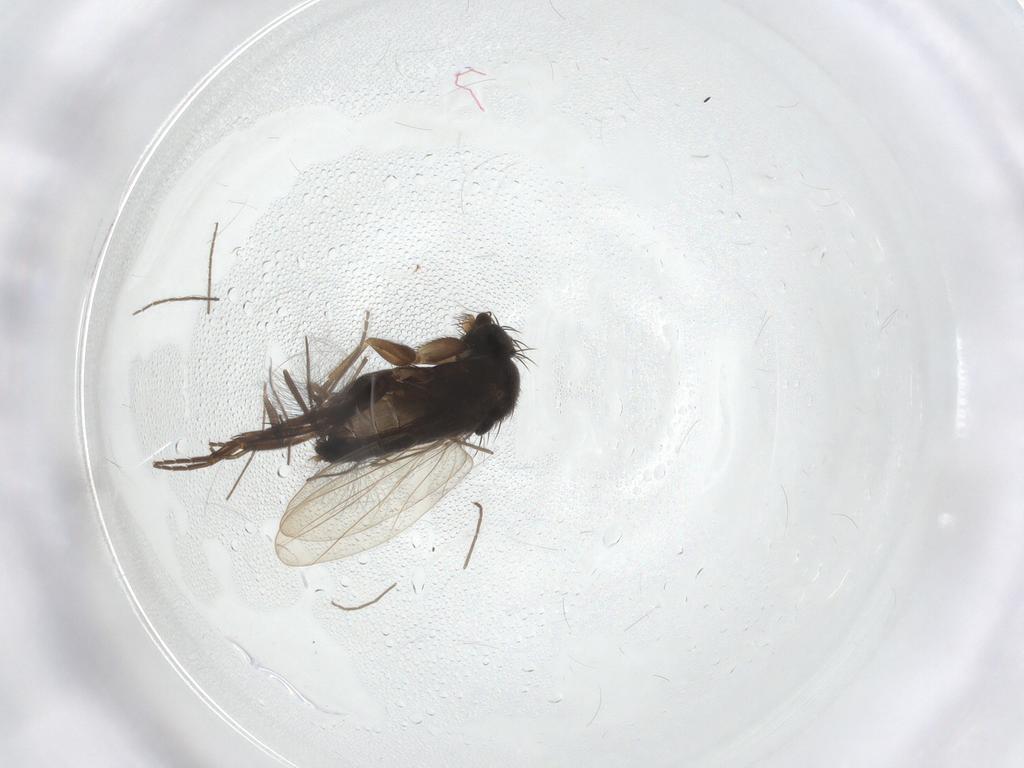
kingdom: Animalia
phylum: Arthropoda
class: Insecta
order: Diptera
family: Phoridae
